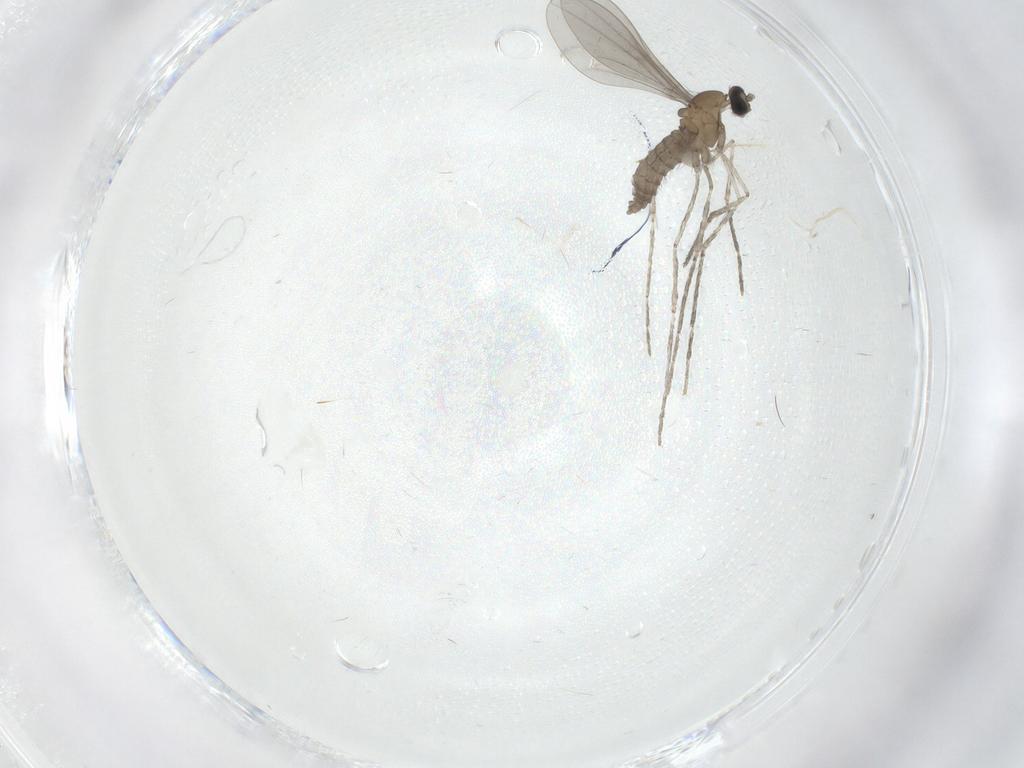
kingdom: Animalia
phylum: Arthropoda
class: Insecta
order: Diptera
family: Cecidomyiidae
